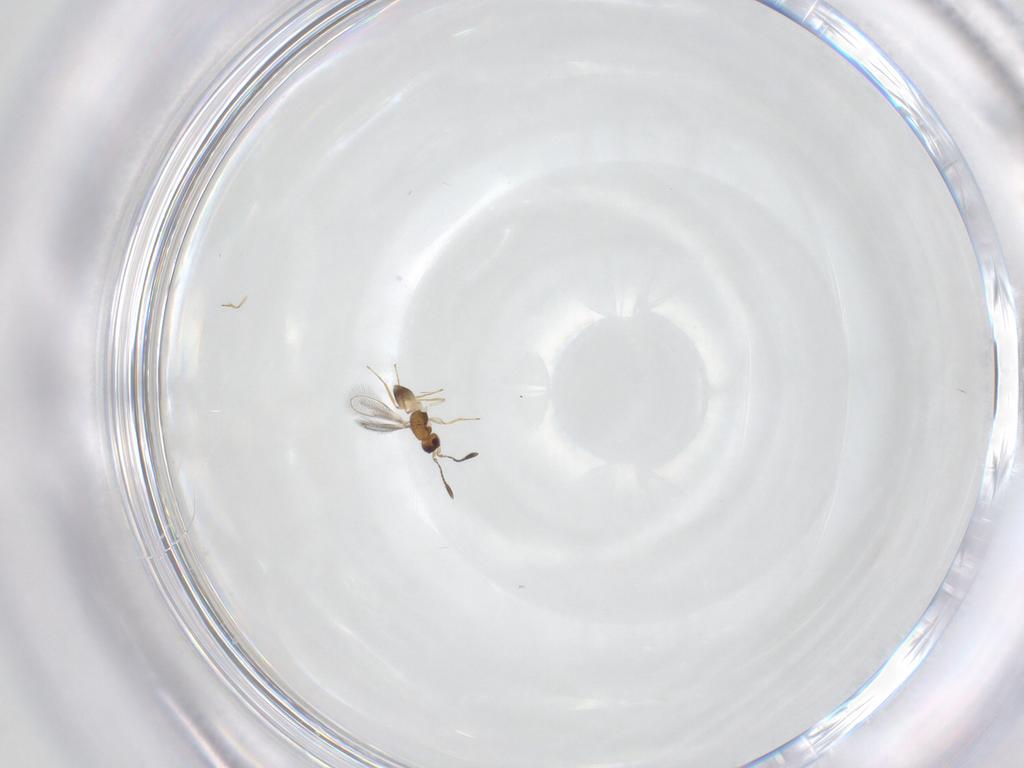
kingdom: Animalia
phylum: Arthropoda
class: Insecta
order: Hymenoptera
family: Mymaridae
